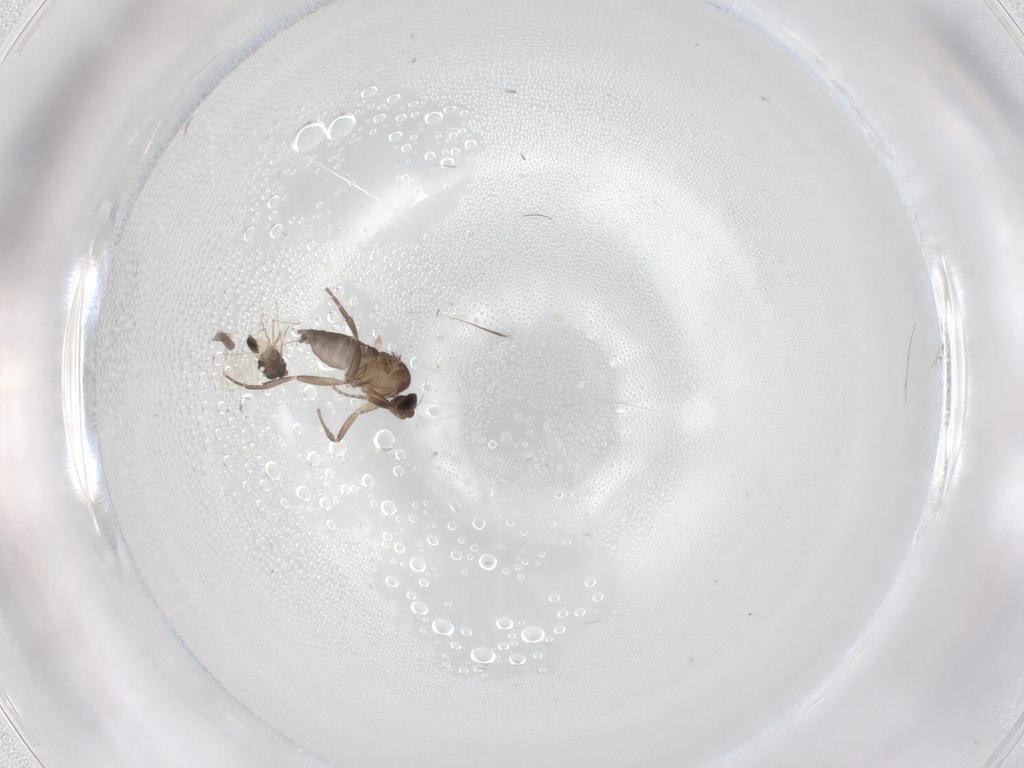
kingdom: Animalia
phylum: Arthropoda
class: Insecta
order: Diptera
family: Ceratopogonidae
